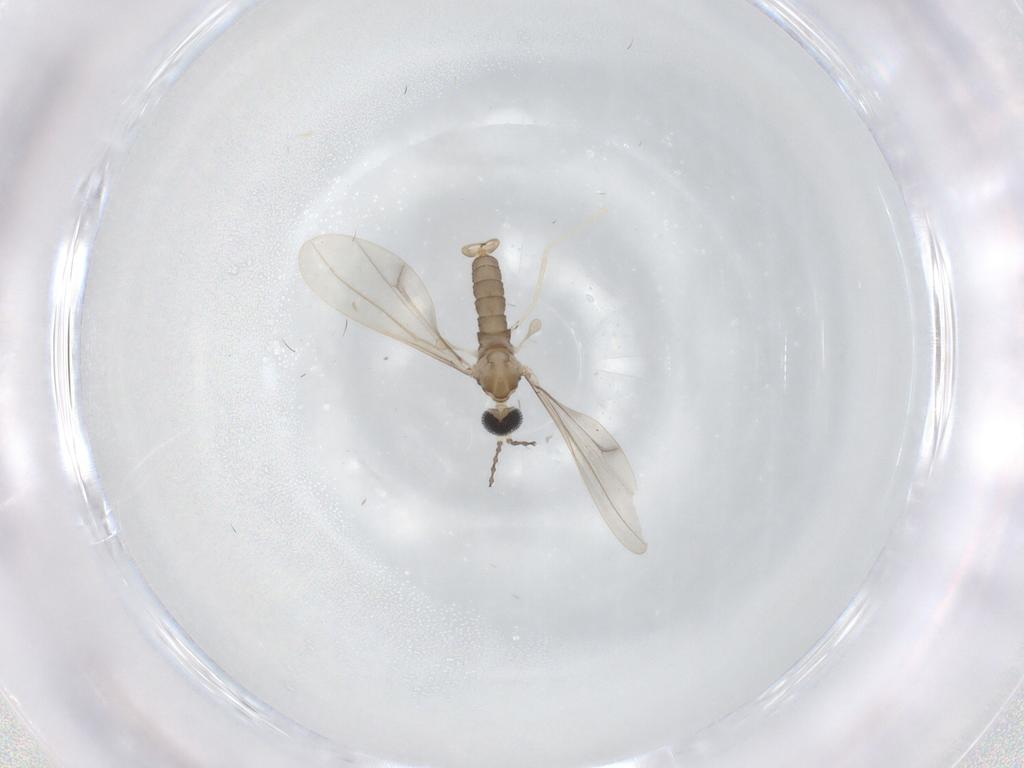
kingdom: Animalia
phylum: Arthropoda
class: Insecta
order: Diptera
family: Cecidomyiidae
